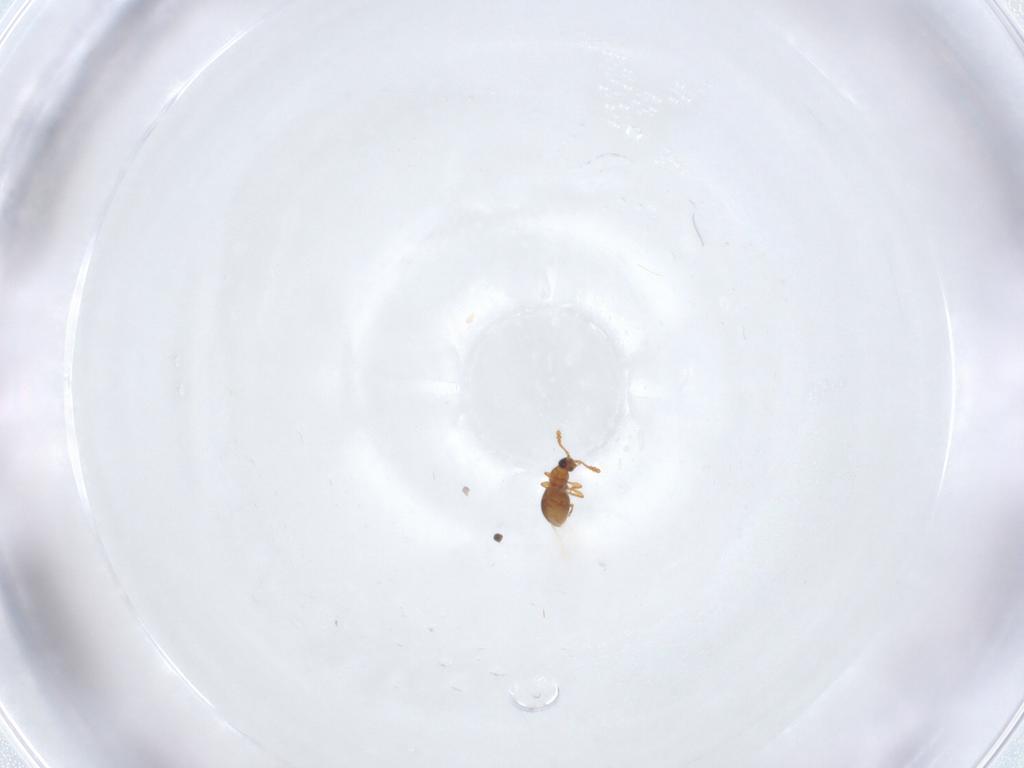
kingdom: Animalia
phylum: Arthropoda
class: Insecta
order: Coleoptera
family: Staphylinidae
